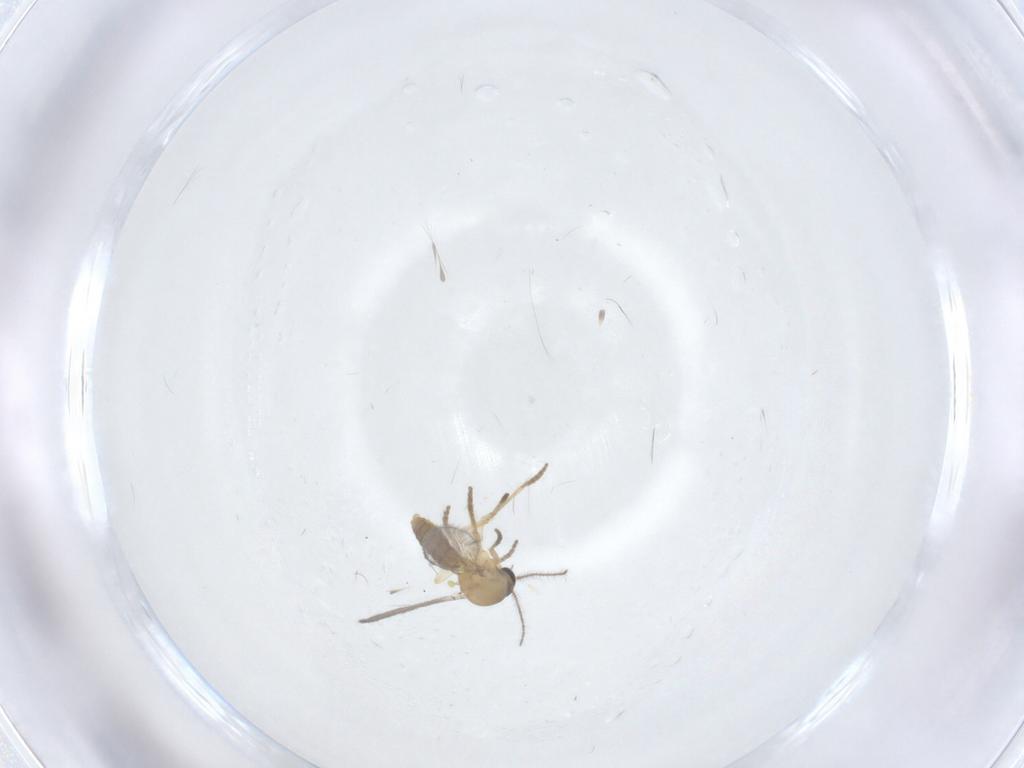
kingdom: Animalia
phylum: Arthropoda
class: Insecta
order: Diptera
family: Ceratopogonidae
